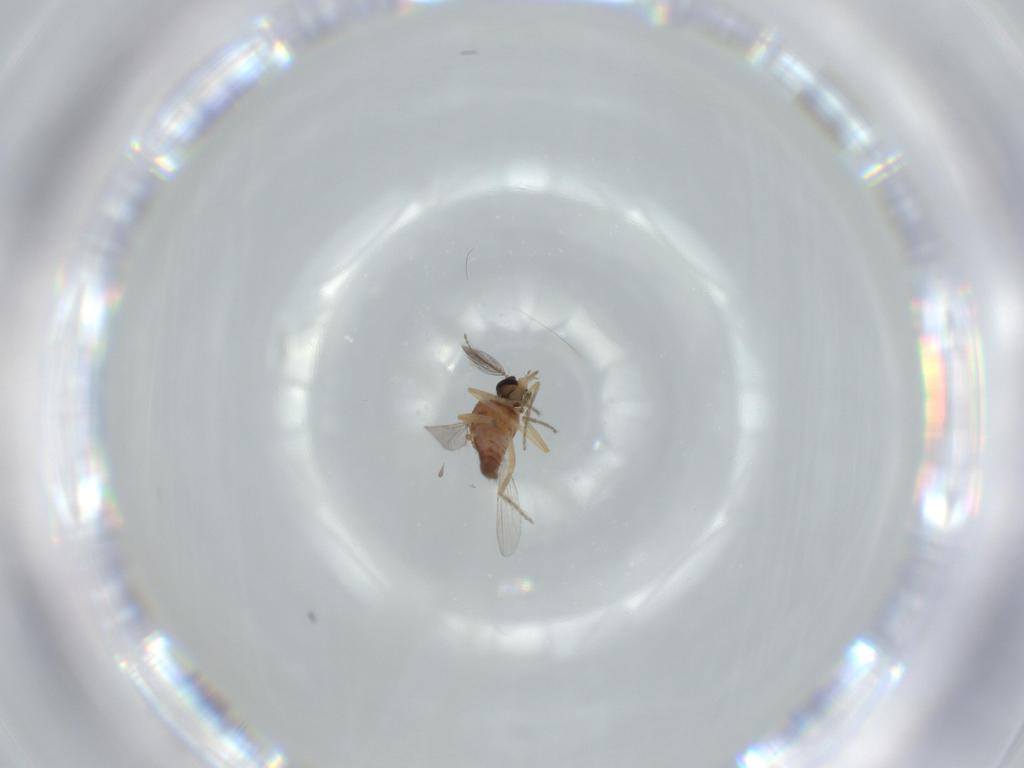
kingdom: Animalia
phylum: Arthropoda
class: Insecta
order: Diptera
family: Ceratopogonidae
